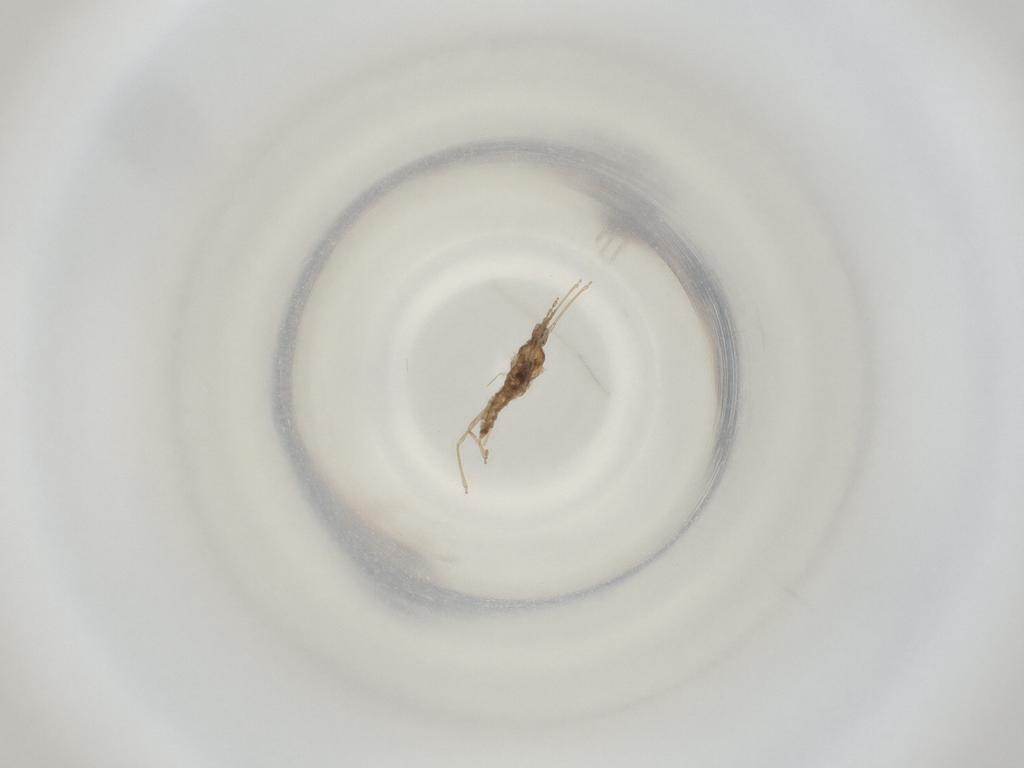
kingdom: Animalia
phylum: Arthropoda
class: Insecta
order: Diptera
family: Cecidomyiidae
